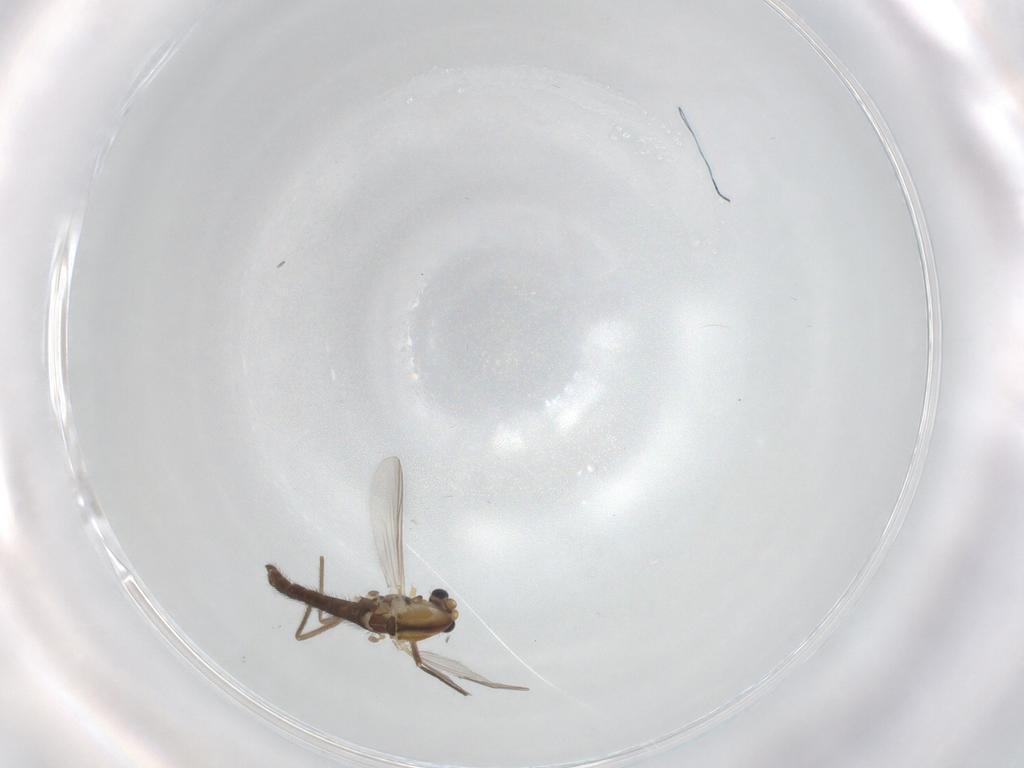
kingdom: Animalia
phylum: Arthropoda
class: Insecta
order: Diptera
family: Chironomidae
